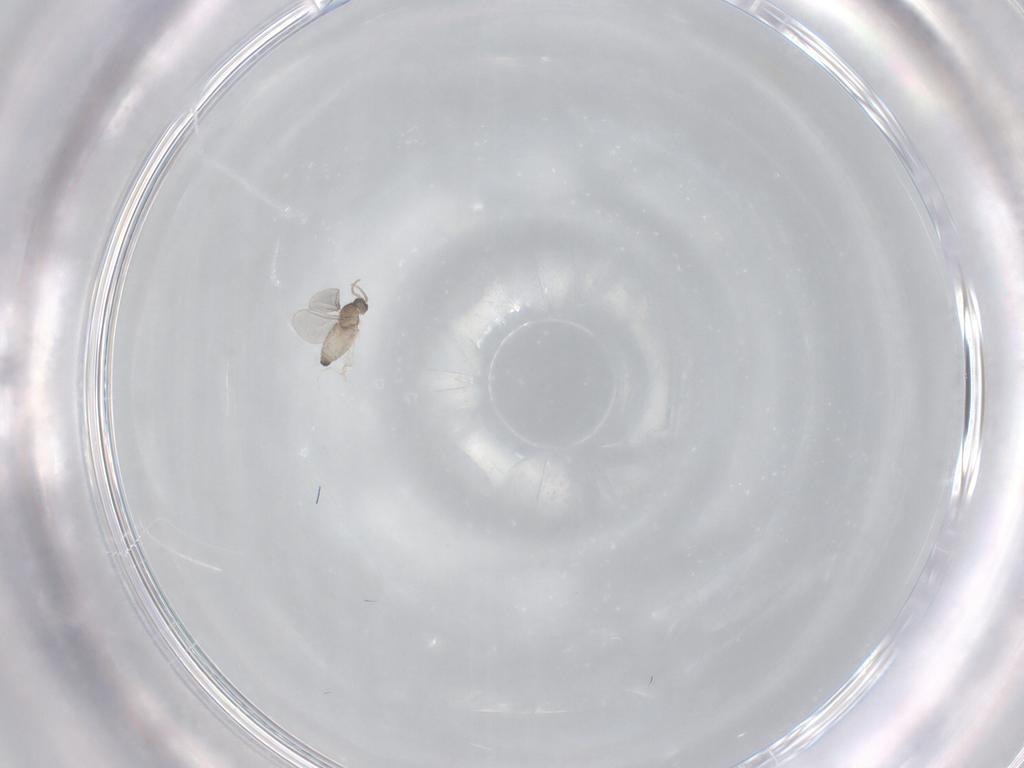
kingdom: Animalia
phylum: Arthropoda
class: Insecta
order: Diptera
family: Cecidomyiidae
